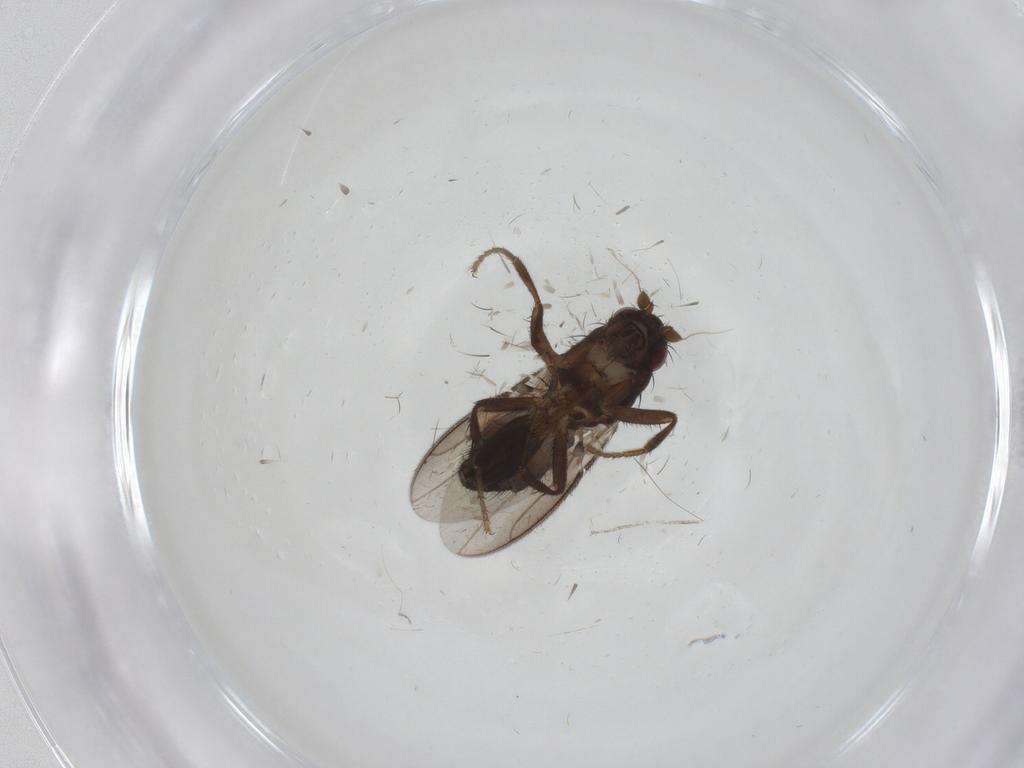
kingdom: Animalia
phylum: Arthropoda
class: Insecta
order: Diptera
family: Sphaeroceridae
